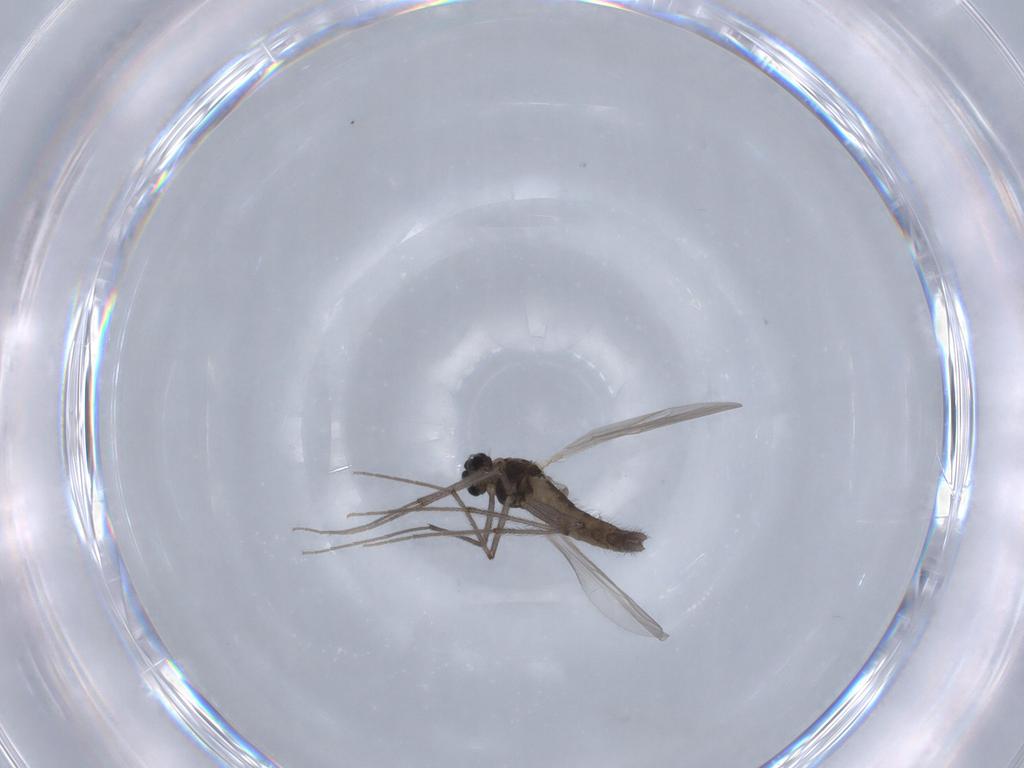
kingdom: Animalia
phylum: Arthropoda
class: Insecta
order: Diptera
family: Chironomidae
